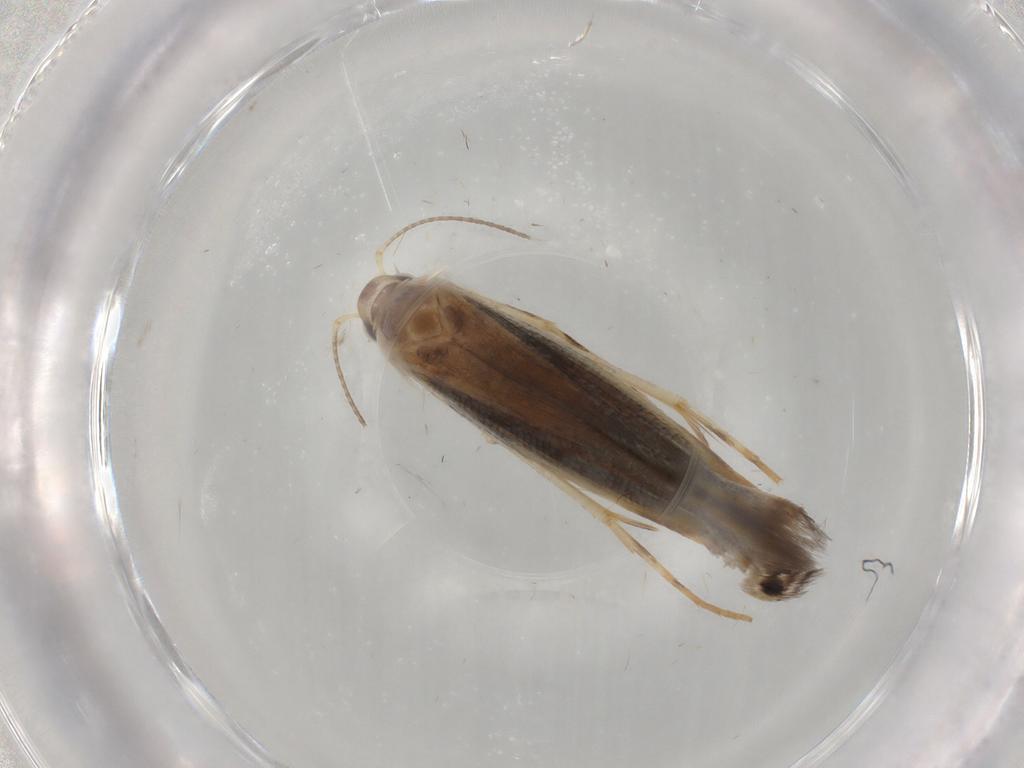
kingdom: Animalia
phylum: Arthropoda
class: Insecta
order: Lepidoptera
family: Gelechiidae
